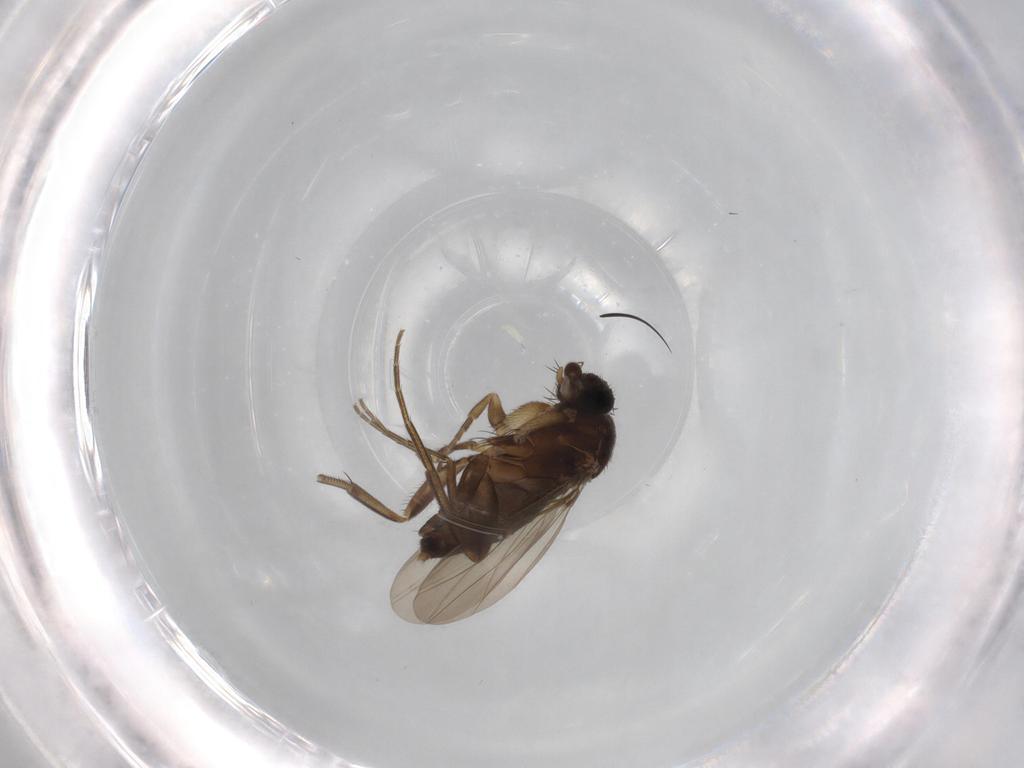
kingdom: Animalia
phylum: Arthropoda
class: Insecta
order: Diptera
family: Phoridae
